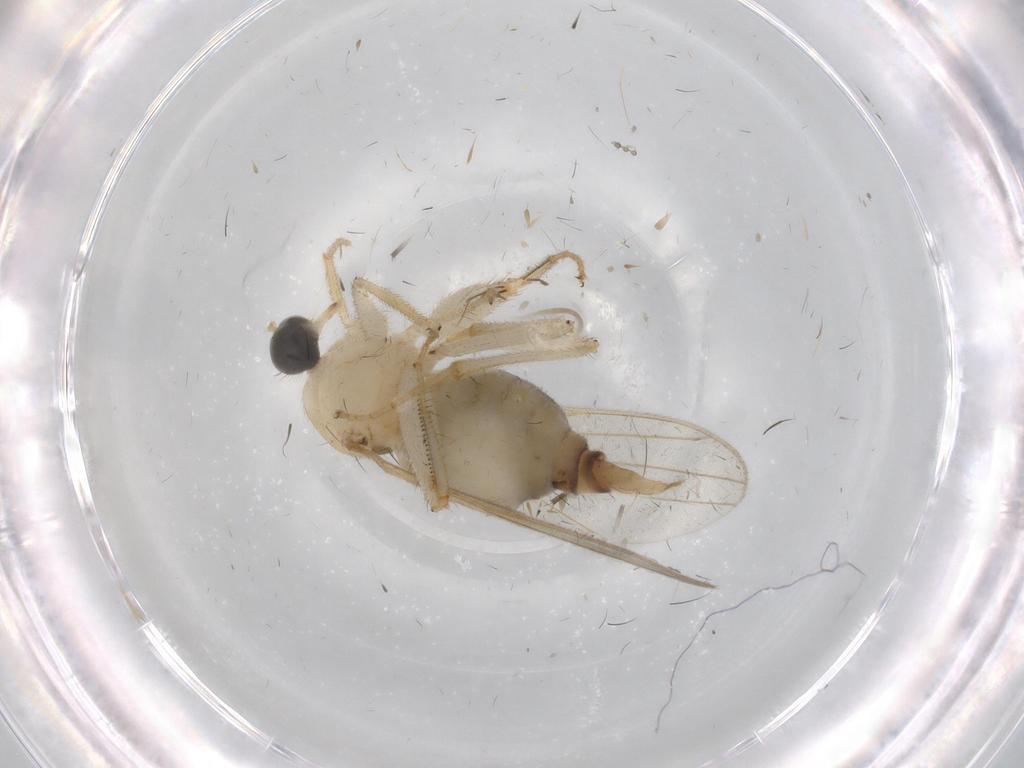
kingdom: Animalia
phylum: Arthropoda
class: Insecta
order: Diptera
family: Hybotidae
